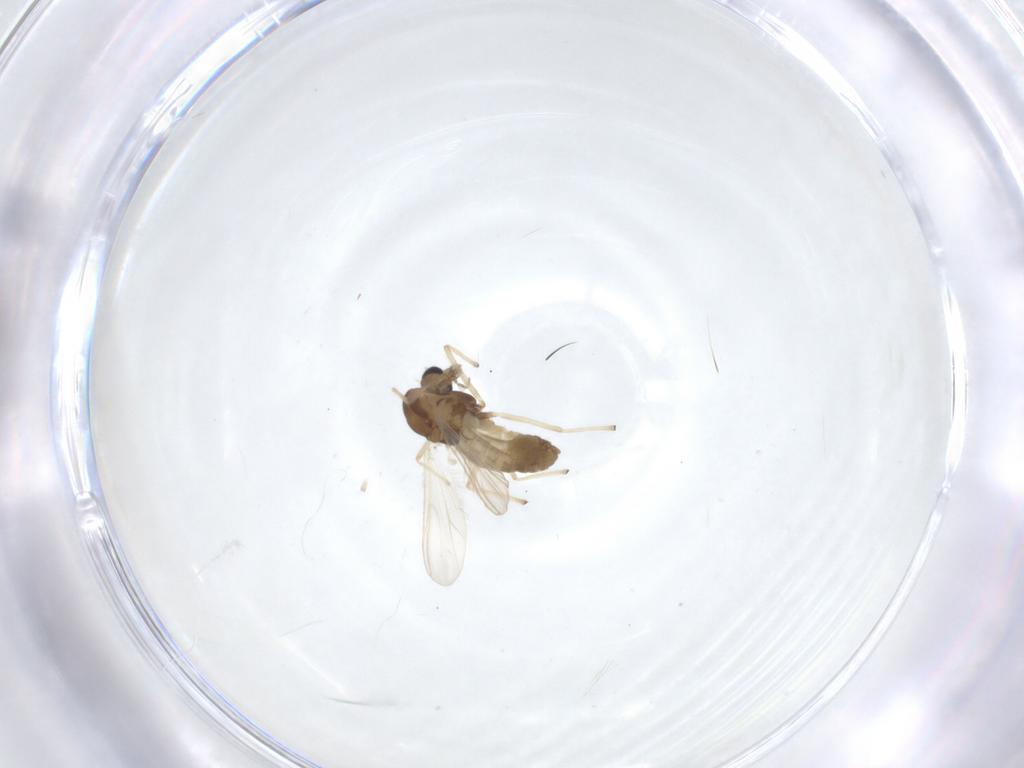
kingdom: Animalia
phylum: Arthropoda
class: Insecta
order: Diptera
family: Chironomidae
